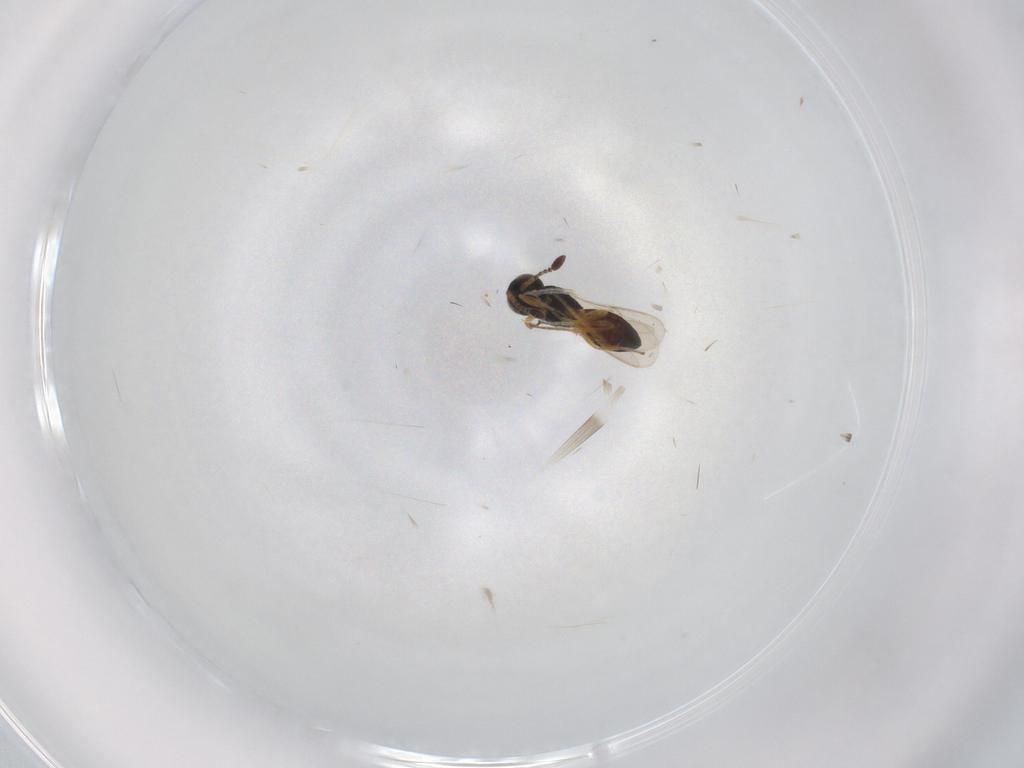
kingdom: Animalia
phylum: Arthropoda
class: Insecta
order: Hymenoptera
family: Scelionidae
